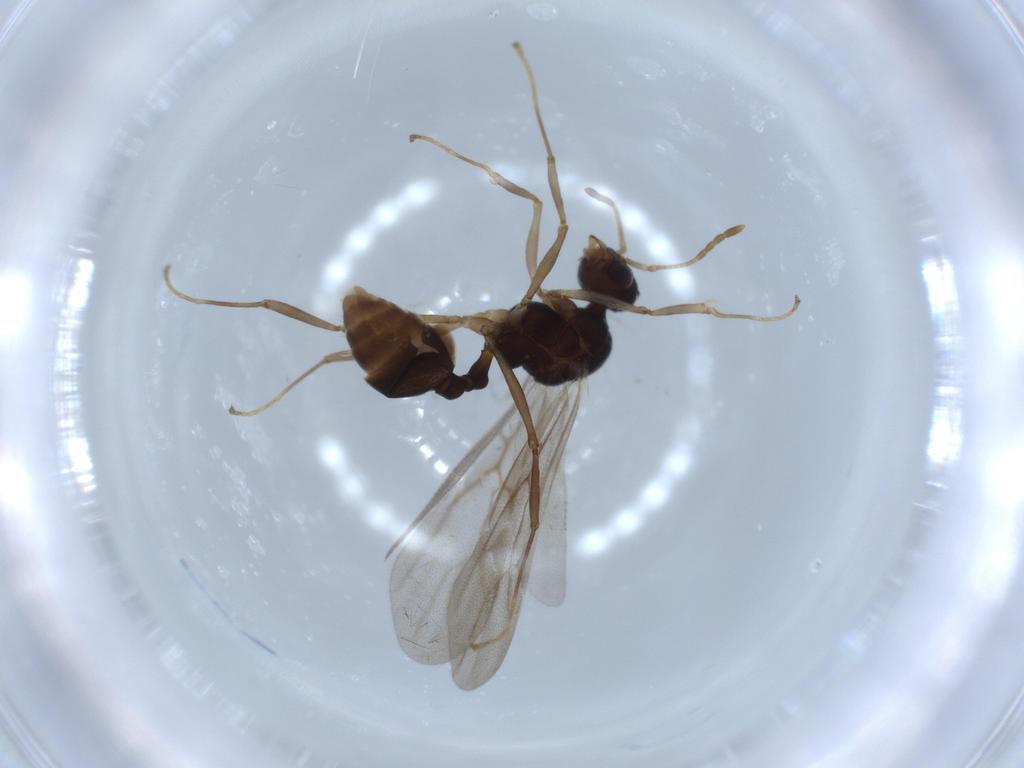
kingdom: Animalia
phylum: Arthropoda
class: Insecta
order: Hymenoptera
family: Formicidae
